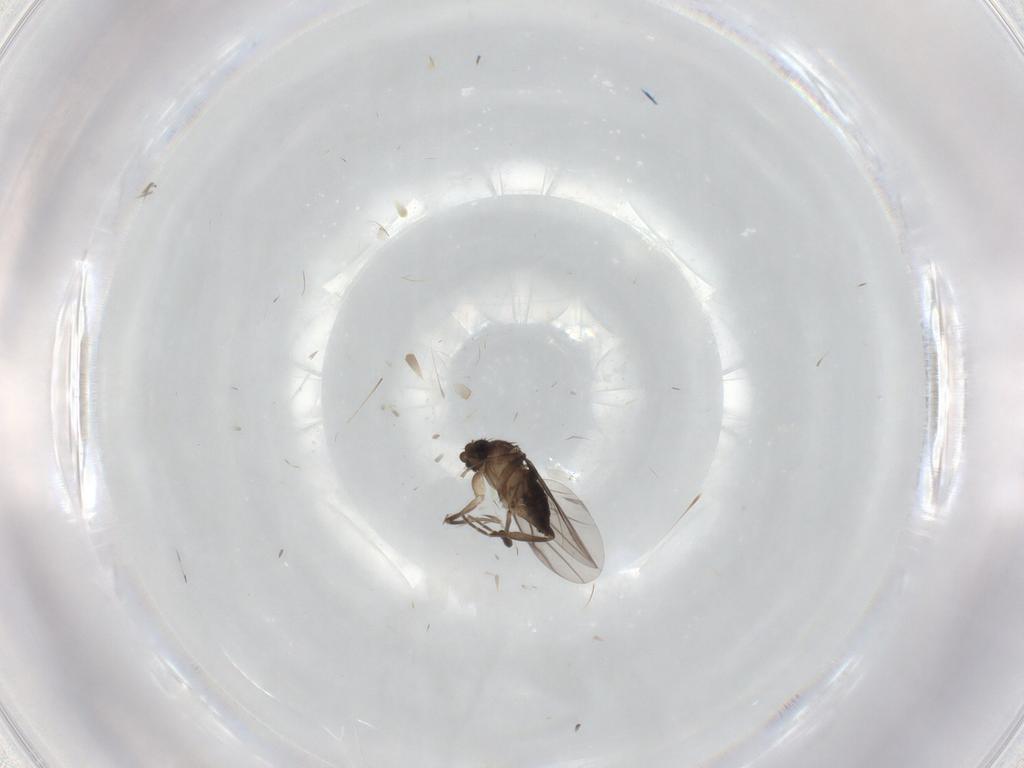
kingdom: Animalia
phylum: Arthropoda
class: Insecta
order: Diptera
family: Phoridae
